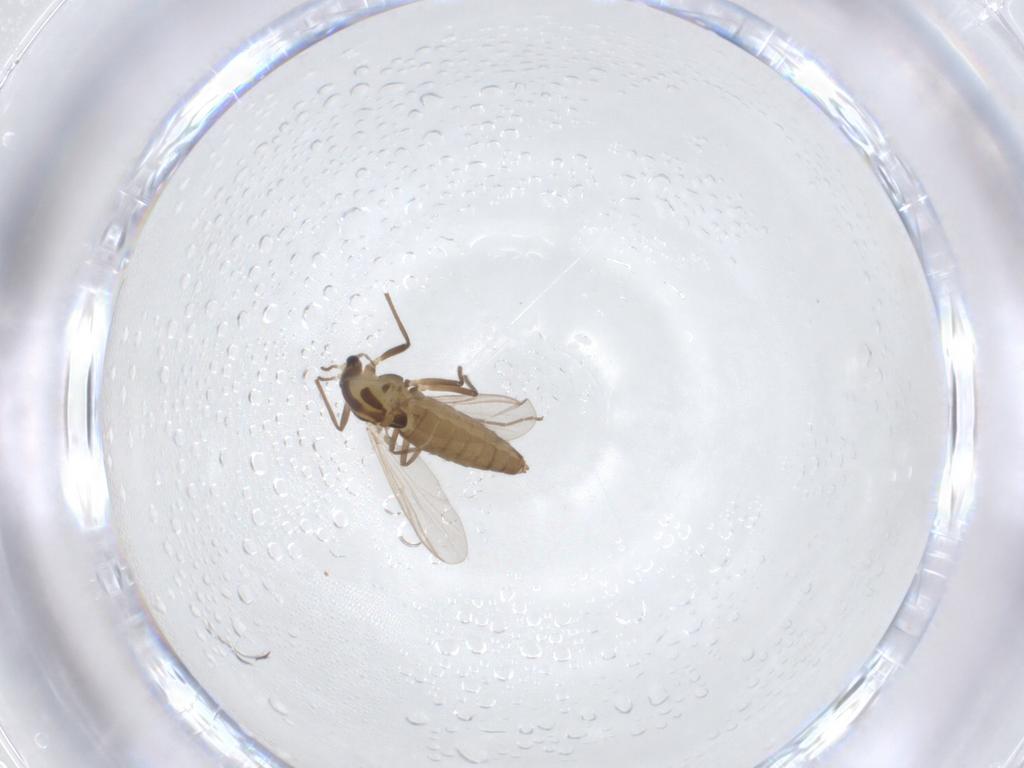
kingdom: Animalia
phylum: Arthropoda
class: Insecta
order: Diptera
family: Chironomidae
